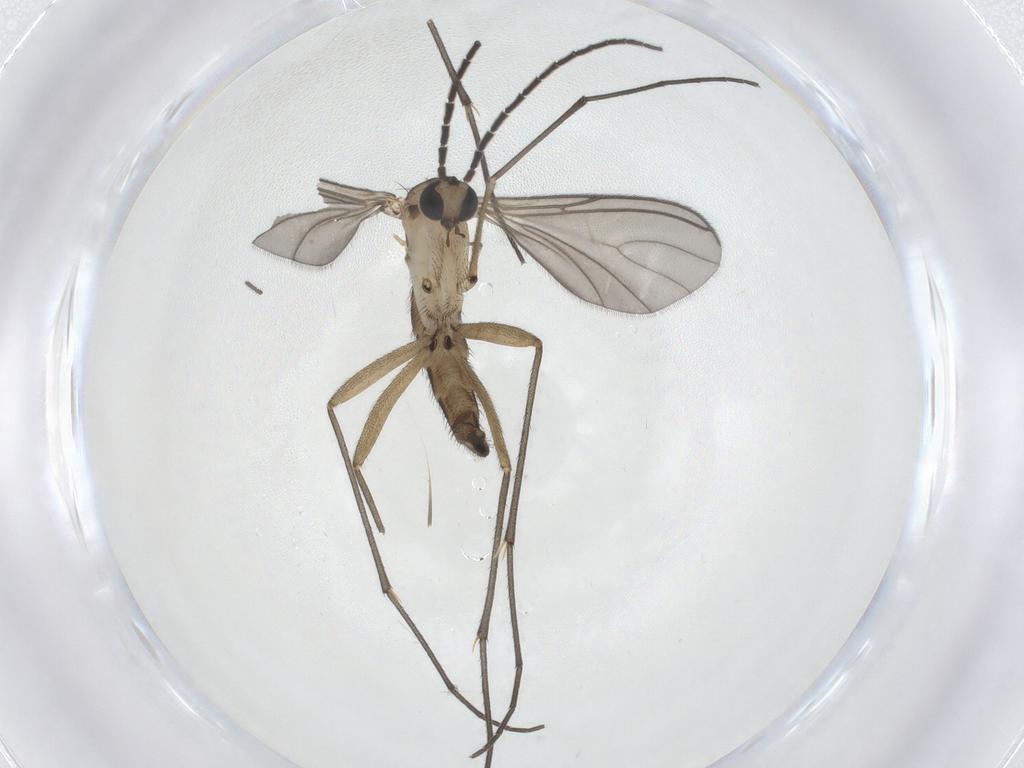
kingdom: Animalia
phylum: Arthropoda
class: Insecta
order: Diptera
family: Sciaridae
